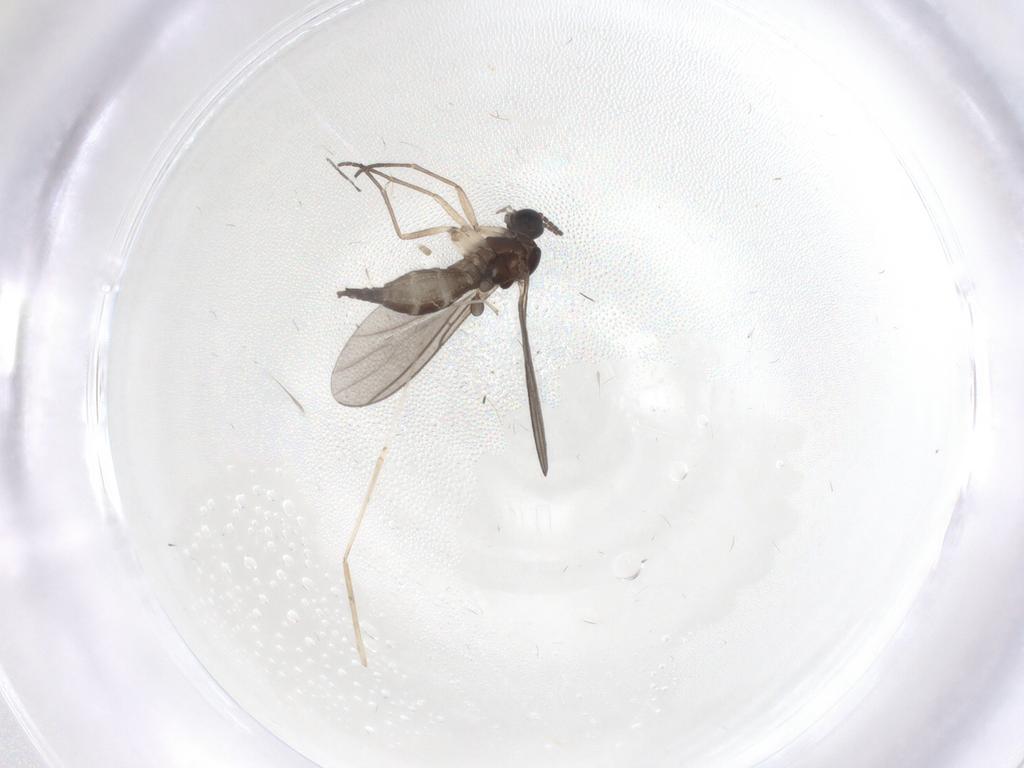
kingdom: Animalia
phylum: Arthropoda
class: Insecta
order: Diptera
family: Sciaridae
